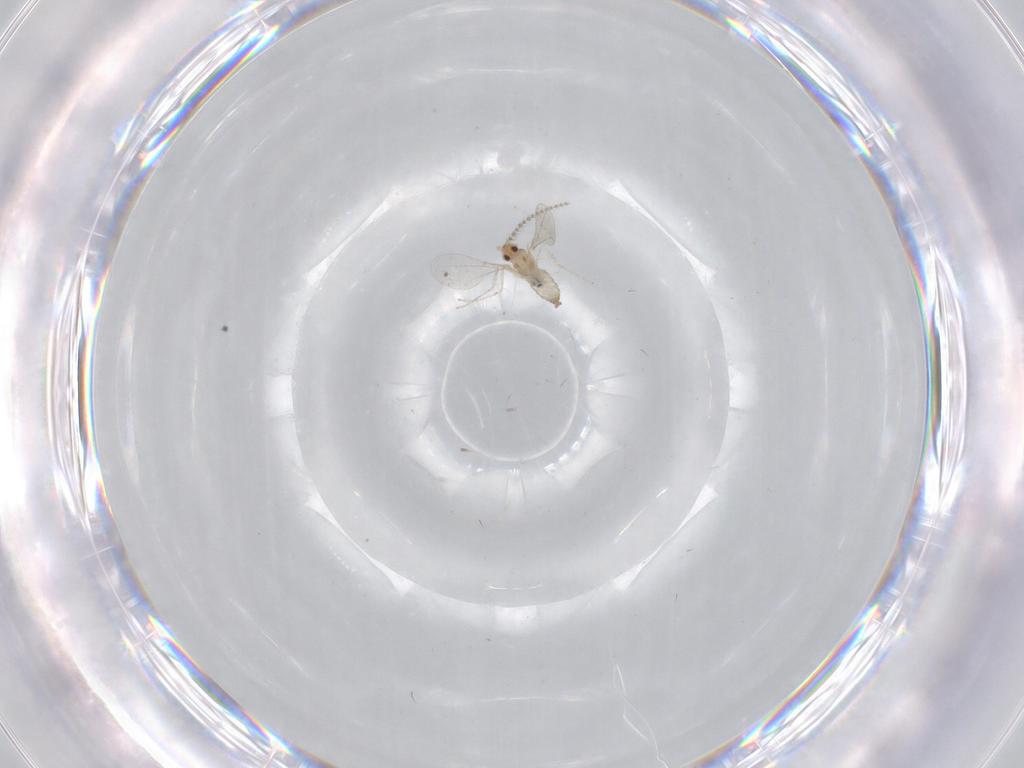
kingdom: Animalia
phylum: Arthropoda
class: Insecta
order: Diptera
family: Cecidomyiidae
